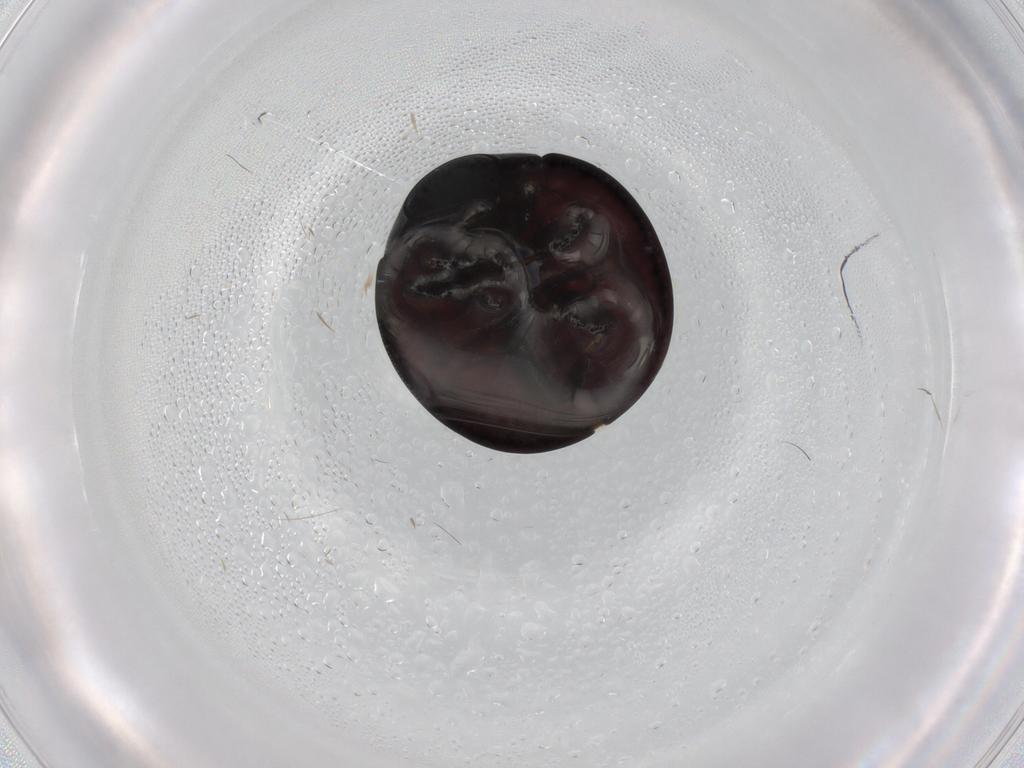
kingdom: Animalia
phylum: Arthropoda
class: Insecta
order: Coleoptera
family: Coccinellidae
